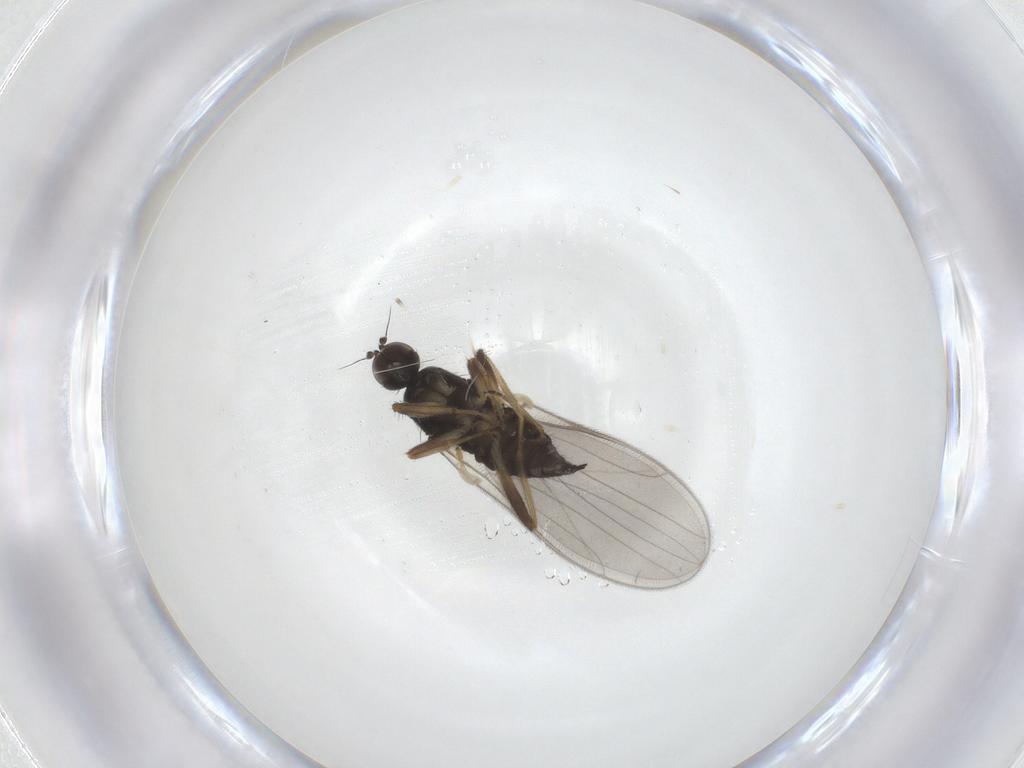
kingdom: Animalia
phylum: Arthropoda
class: Insecta
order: Diptera
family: Hybotidae
